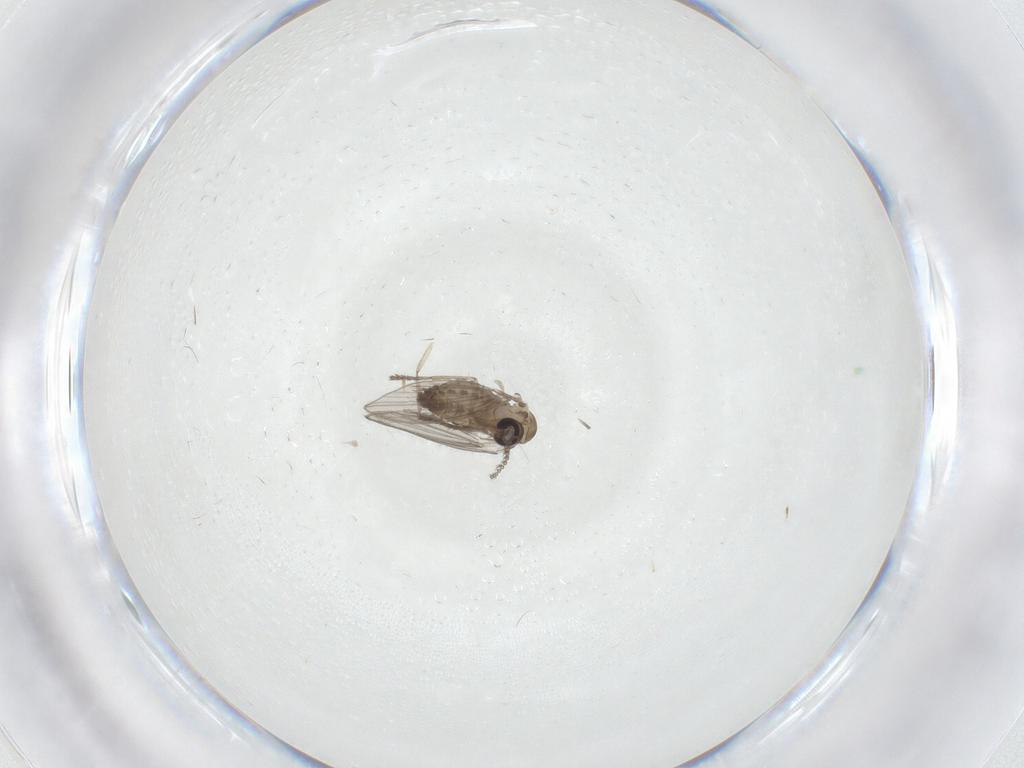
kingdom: Animalia
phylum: Arthropoda
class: Insecta
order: Diptera
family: Psychodidae
